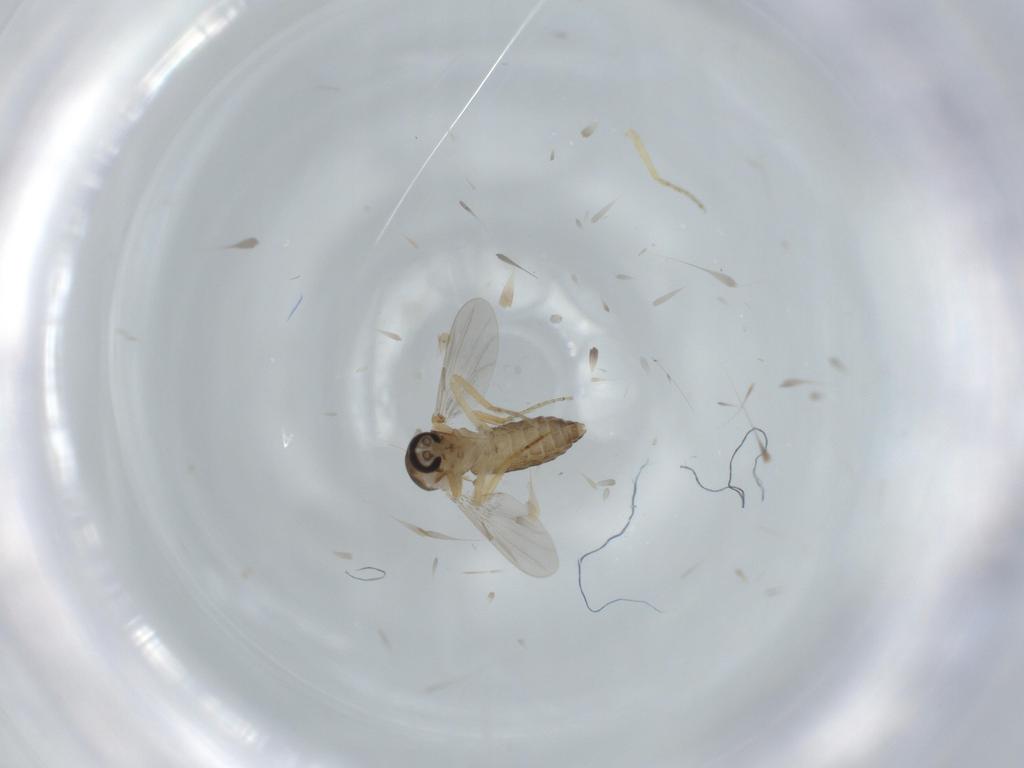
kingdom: Animalia
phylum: Arthropoda
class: Insecta
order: Diptera
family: Ceratopogonidae
